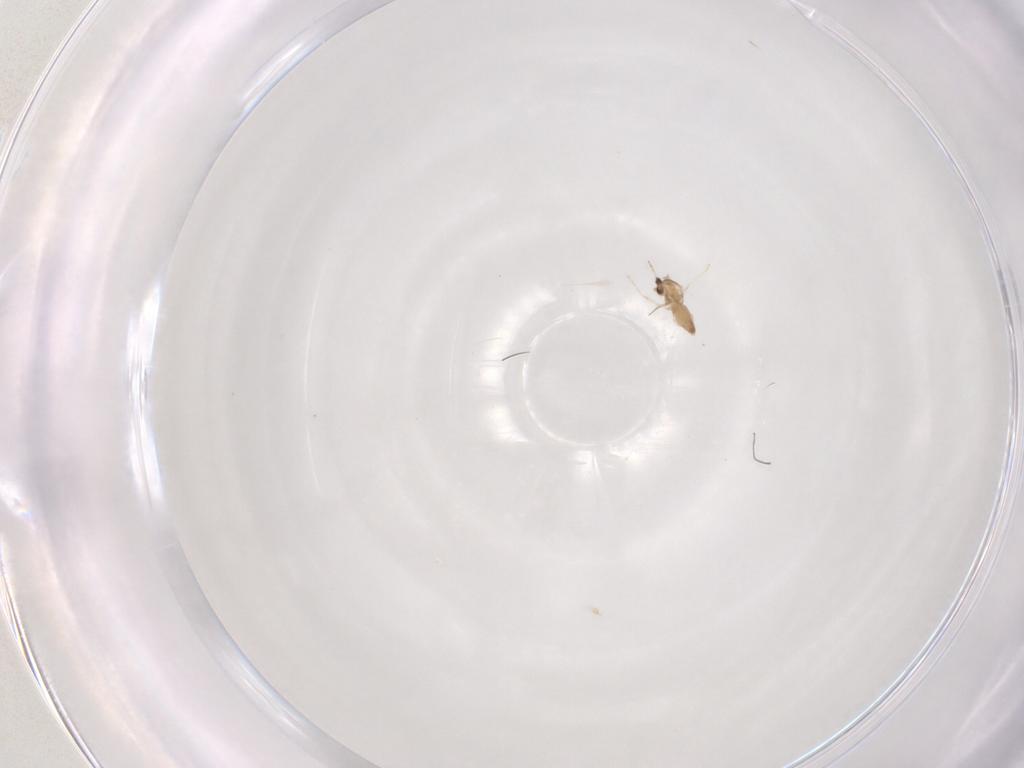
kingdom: Animalia
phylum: Arthropoda
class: Insecta
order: Diptera
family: Cecidomyiidae
